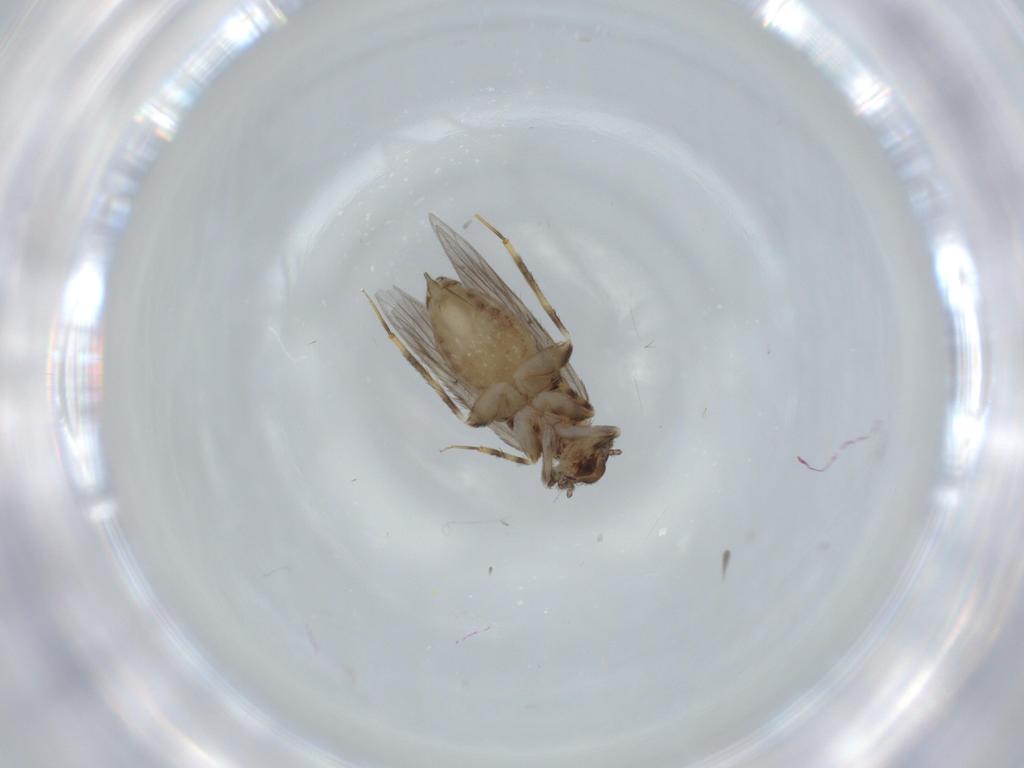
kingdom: Animalia
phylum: Arthropoda
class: Insecta
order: Psocodea
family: Lepidopsocidae
